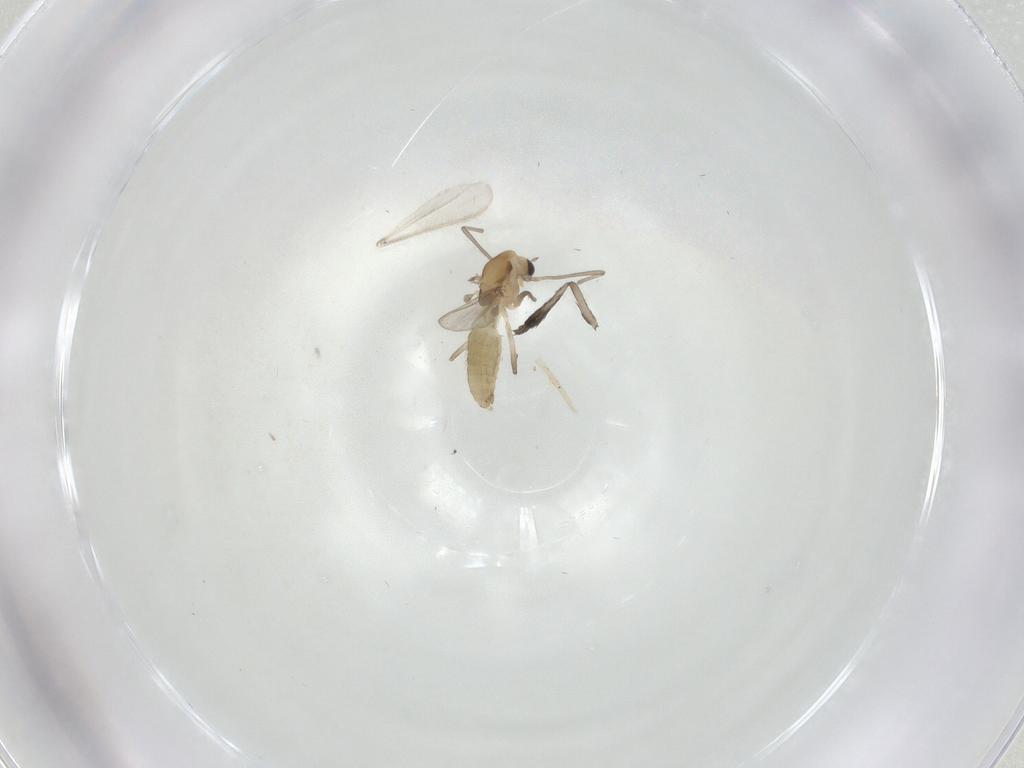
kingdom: Animalia
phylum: Arthropoda
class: Insecta
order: Diptera
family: Chironomidae
